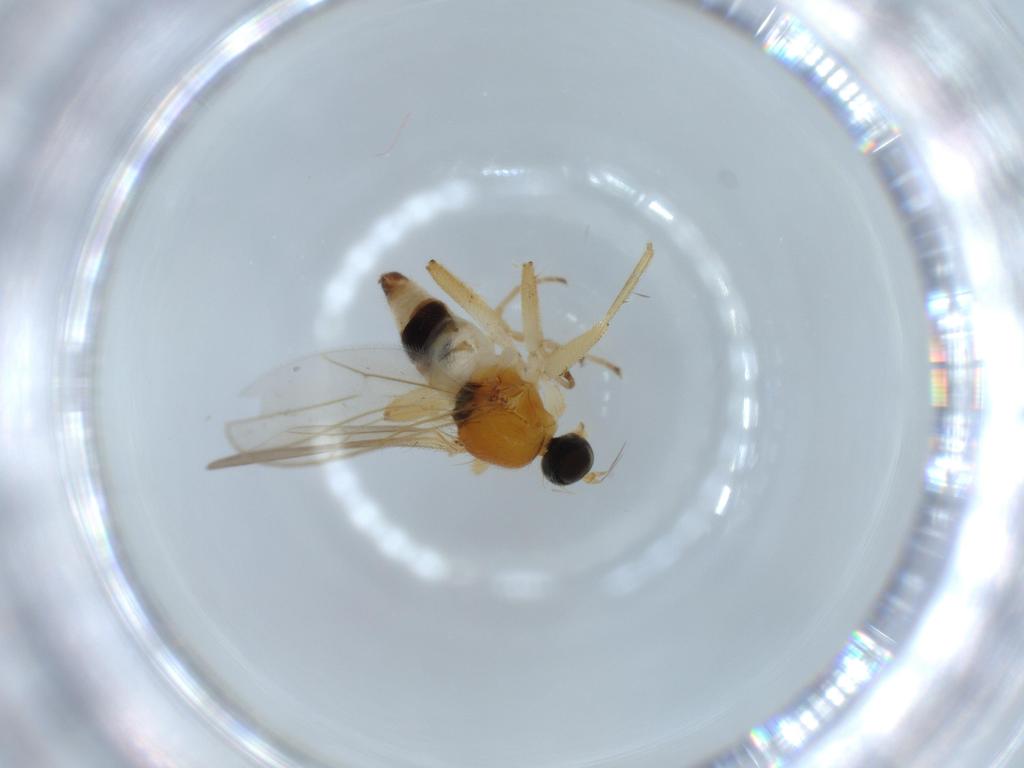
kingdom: Animalia
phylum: Arthropoda
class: Insecta
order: Diptera
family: Hybotidae
